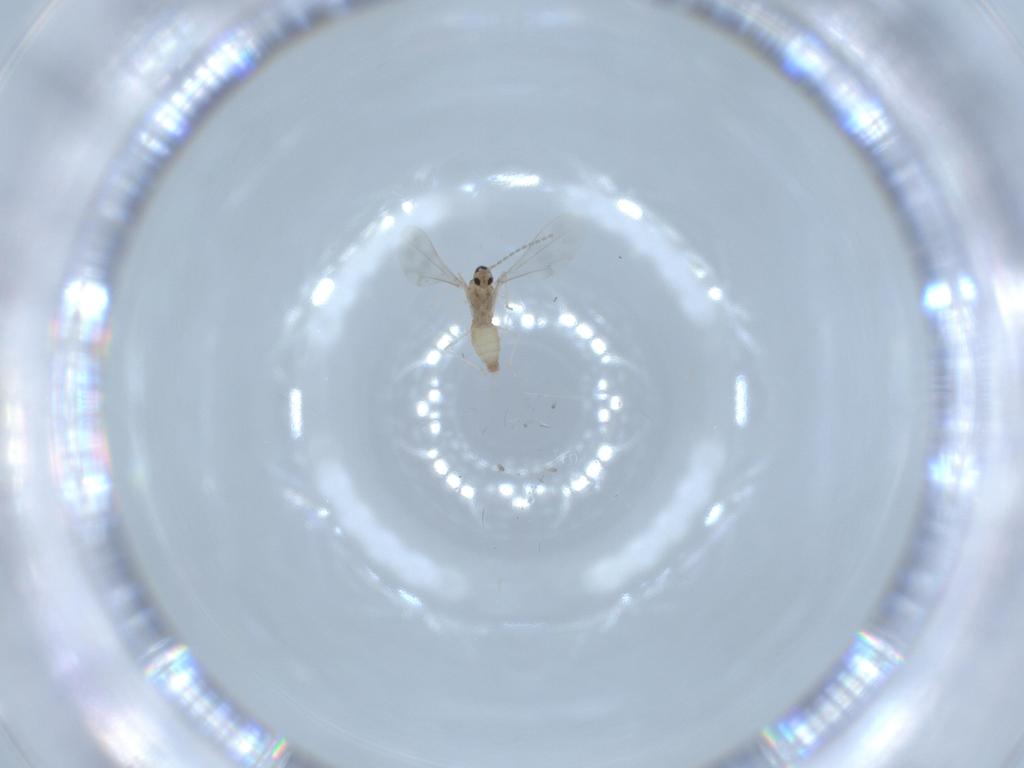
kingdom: Animalia
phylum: Arthropoda
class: Insecta
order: Diptera
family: Cecidomyiidae
